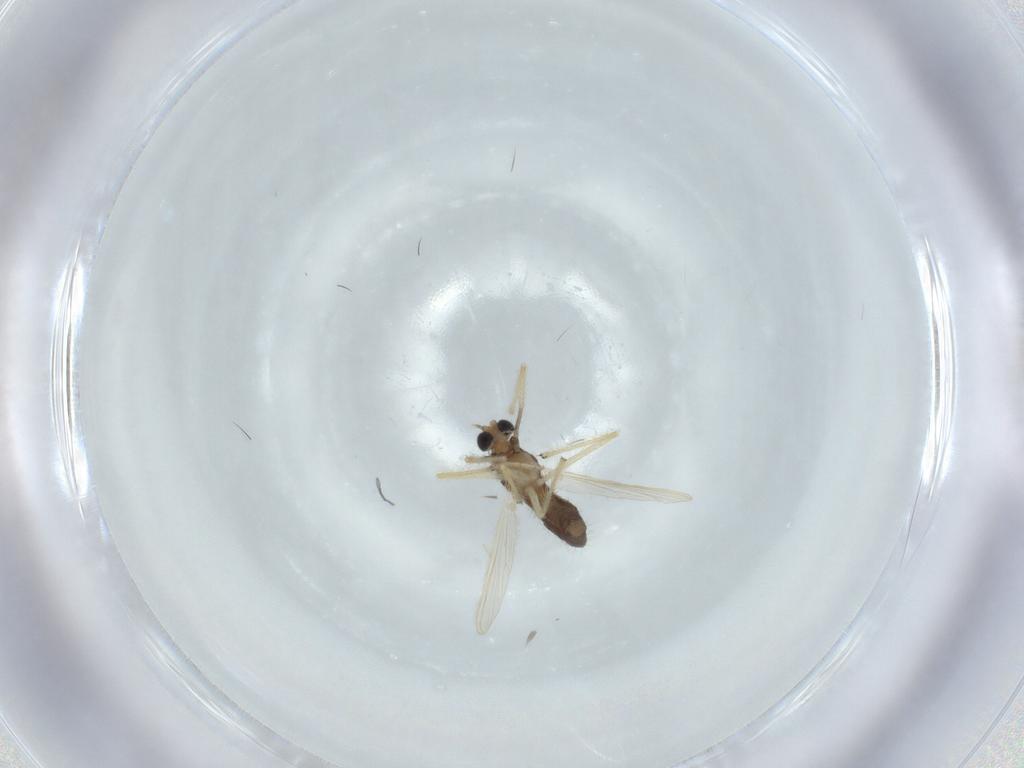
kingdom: Animalia
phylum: Arthropoda
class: Insecta
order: Diptera
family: Chironomidae
